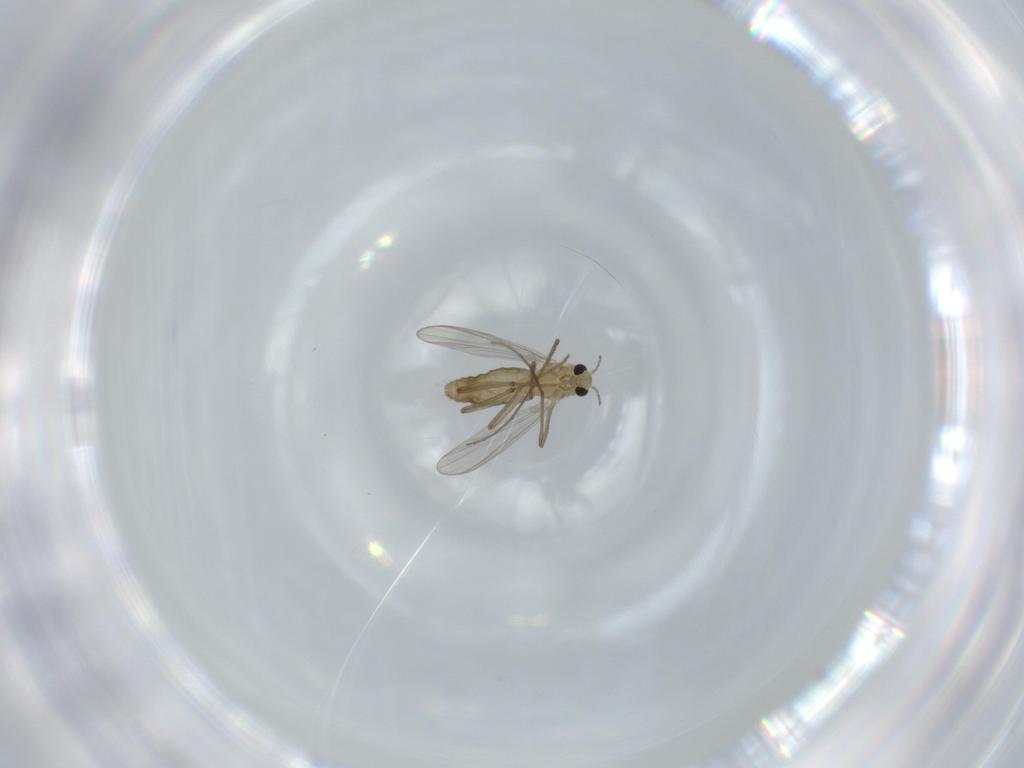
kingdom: Animalia
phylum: Arthropoda
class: Insecta
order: Diptera
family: Chironomidae
